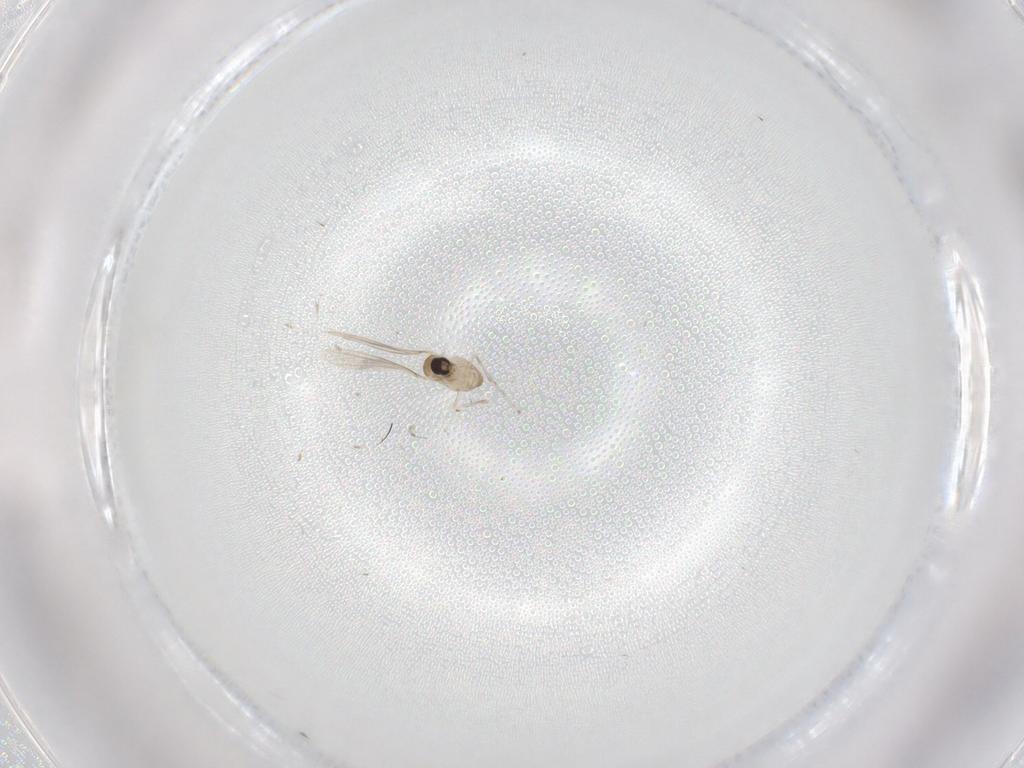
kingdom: Animalia
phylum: Arthropoda
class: Insecta
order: Diptera
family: Cecidomyiidae
